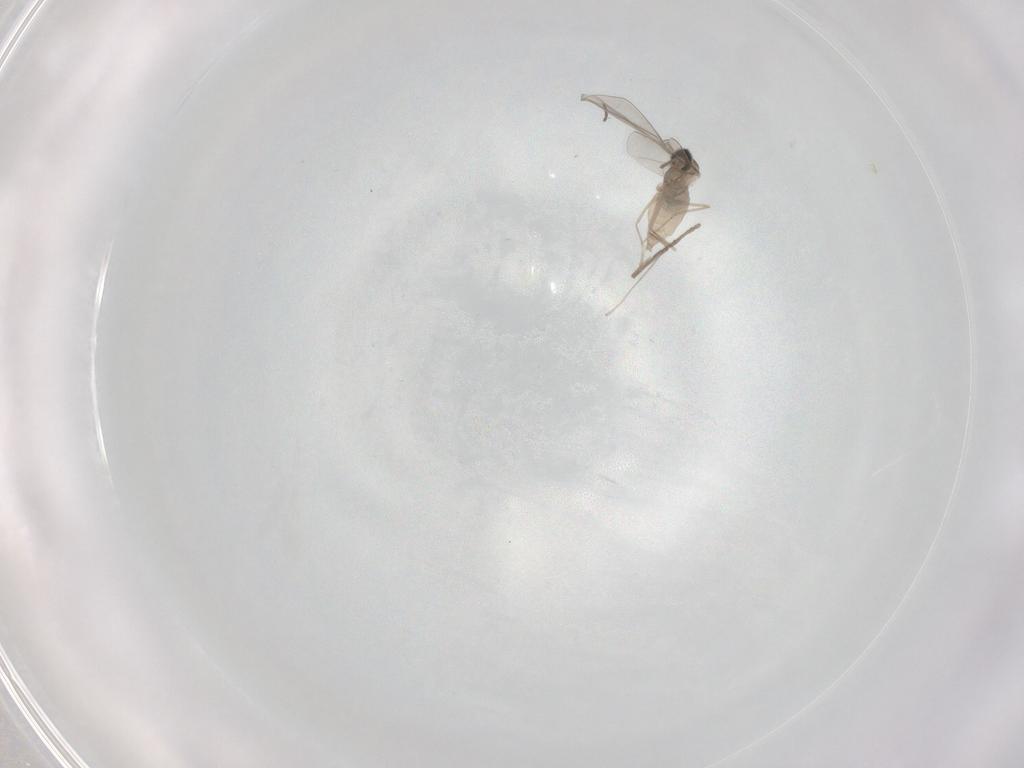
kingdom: Animalia
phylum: Arthropoda
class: Insecta
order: Diptera
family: Cecidomyiidae
